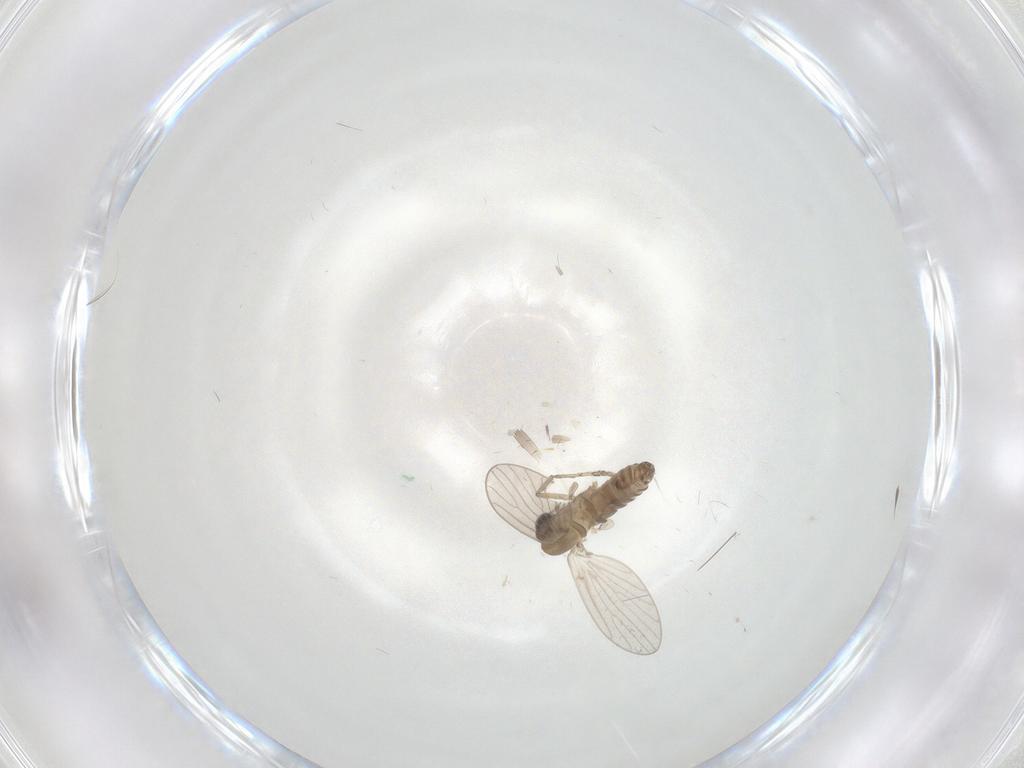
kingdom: Animalia
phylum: Arthropoda
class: Insecta
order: Diptera
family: Psychodidae
